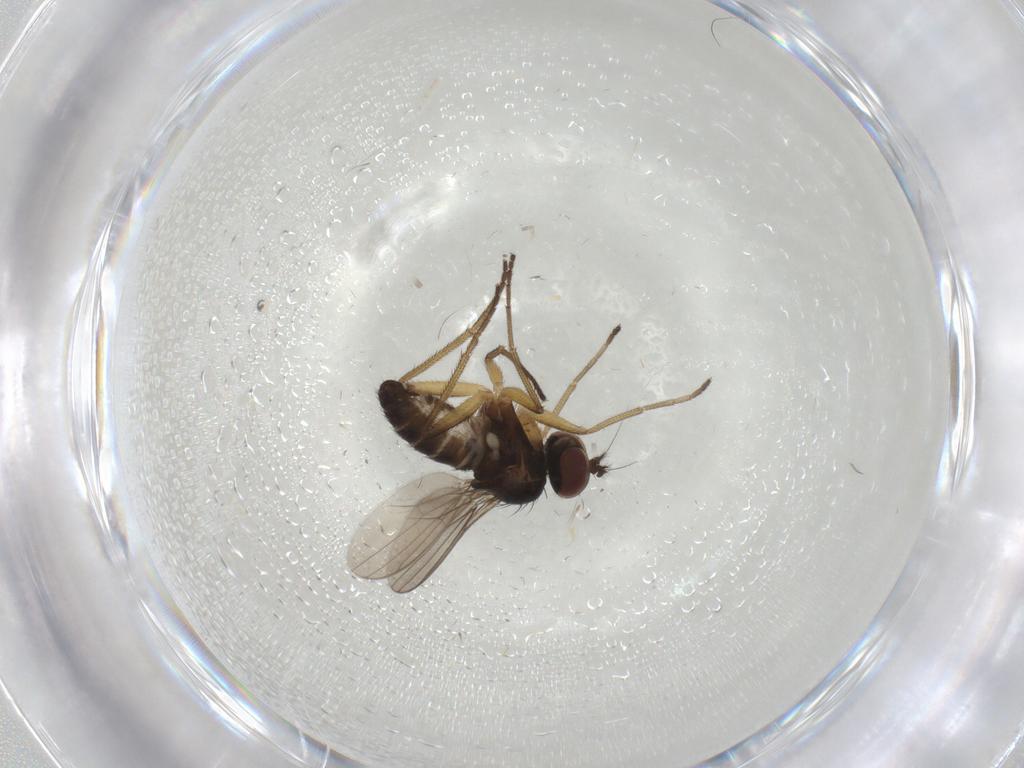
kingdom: Animalia
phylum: Arthropoda
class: Insecta
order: Diptera
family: Dolichopodidae
